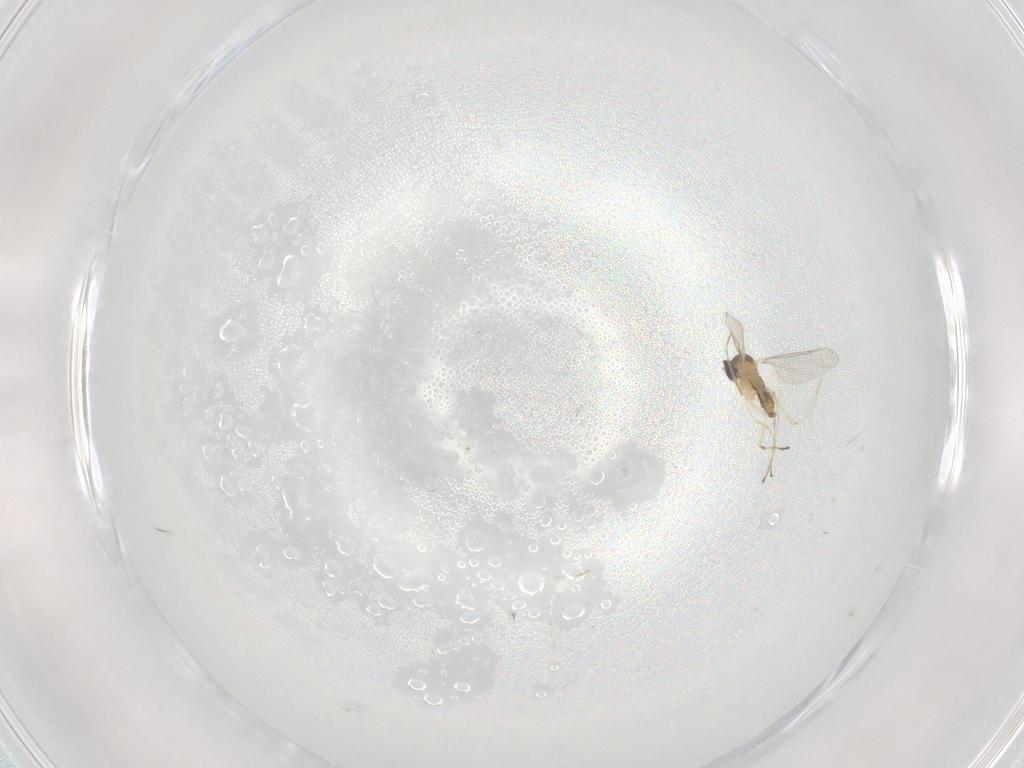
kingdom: Animalia
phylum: Arthropoda
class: Insecta
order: Diptera
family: Cecidomyiidae
